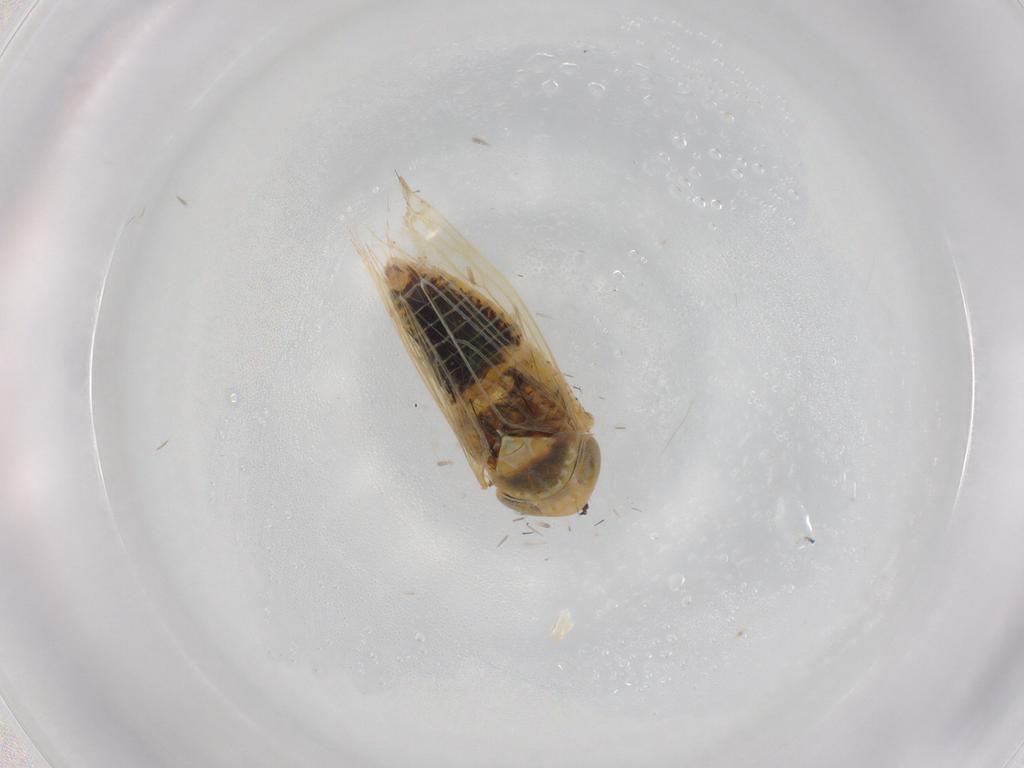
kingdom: Animalia
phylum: Arthropoda
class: Insecta
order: Hemiptera
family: Cicadellidae
